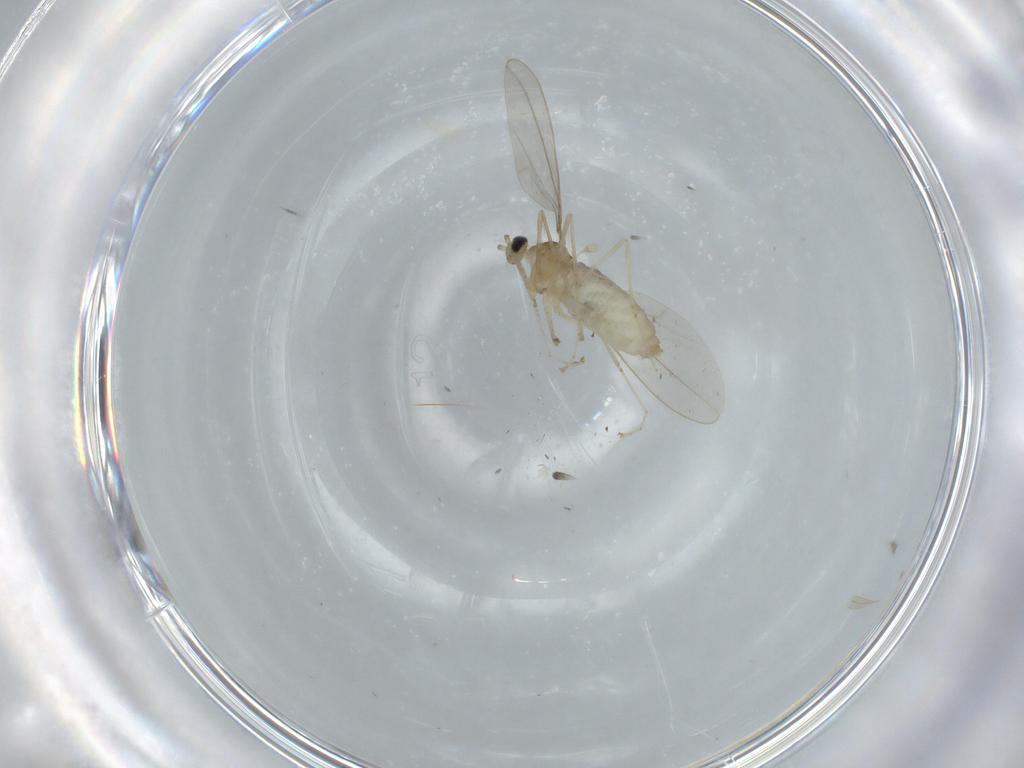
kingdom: Animalia
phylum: Arthropoda
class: Insecta
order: Diptera
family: Cecidomyiidae
